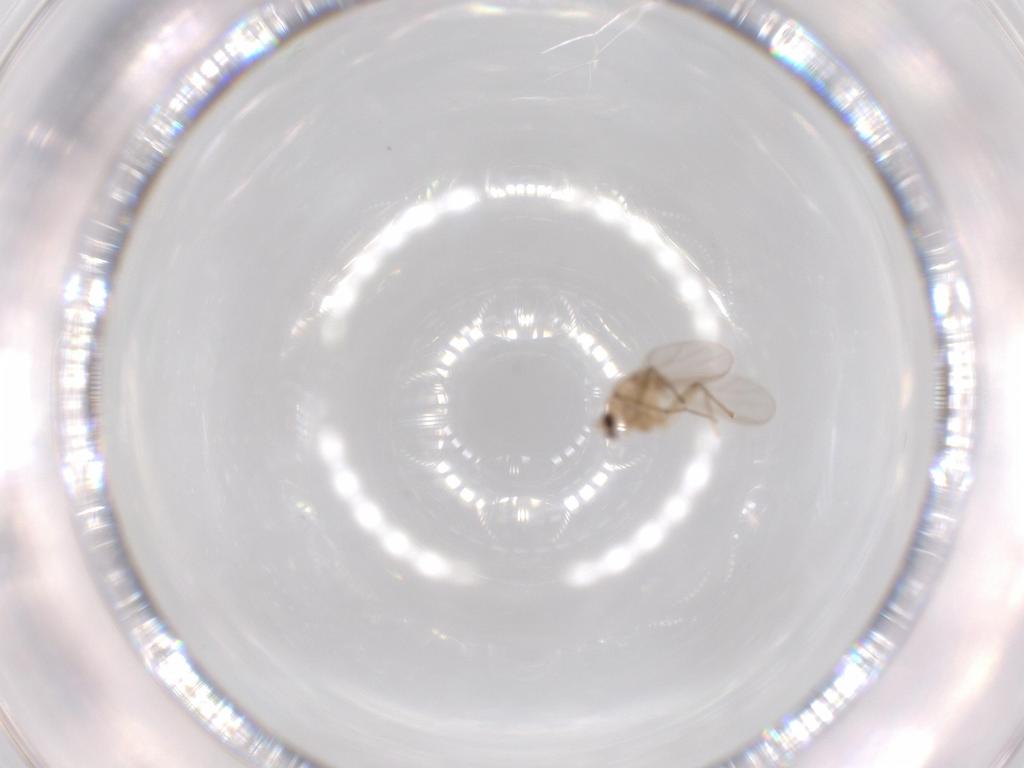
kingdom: Animalia
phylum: Arthropoda
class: Insecta
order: Diptera
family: Chironomidae
